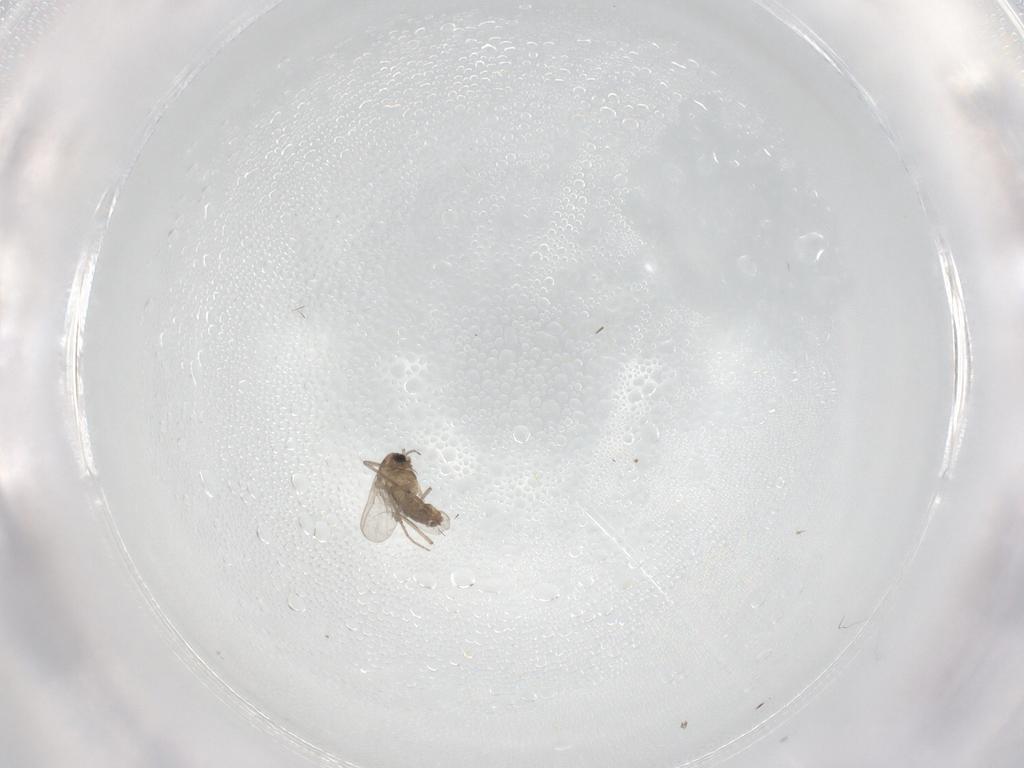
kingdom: Animalia
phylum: Arthropoda
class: Insecta
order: Diptera
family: Chironomidae
